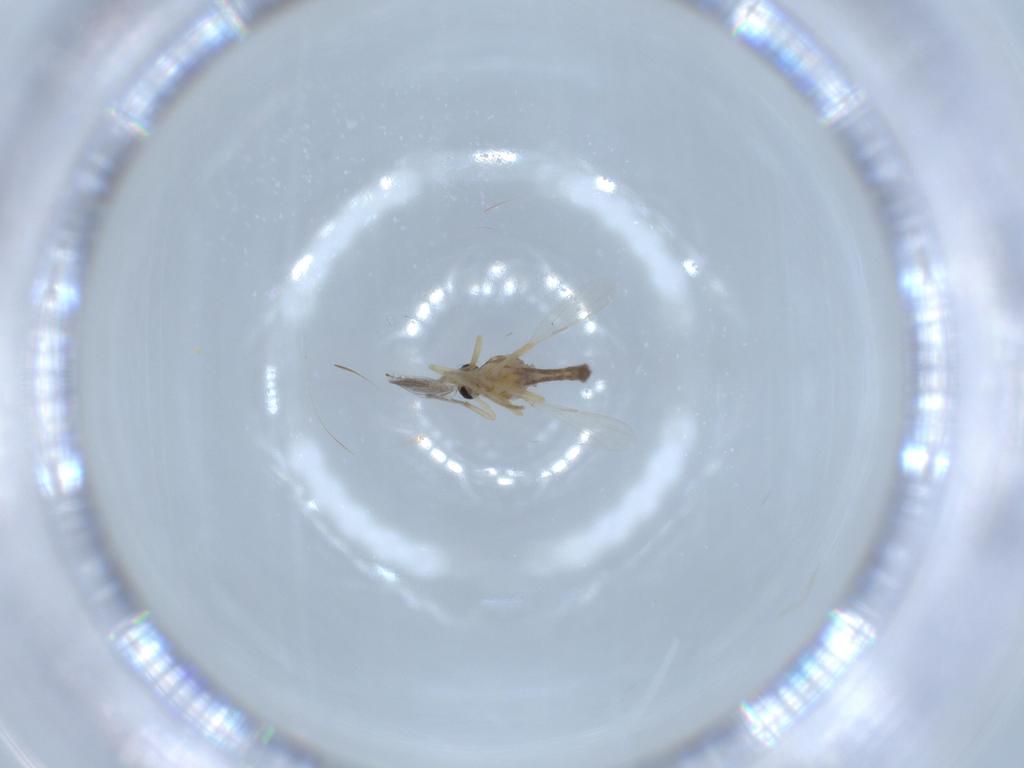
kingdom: Animalia
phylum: Arthropoda
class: Insecta
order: Diptera
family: Ceratopogonidae
